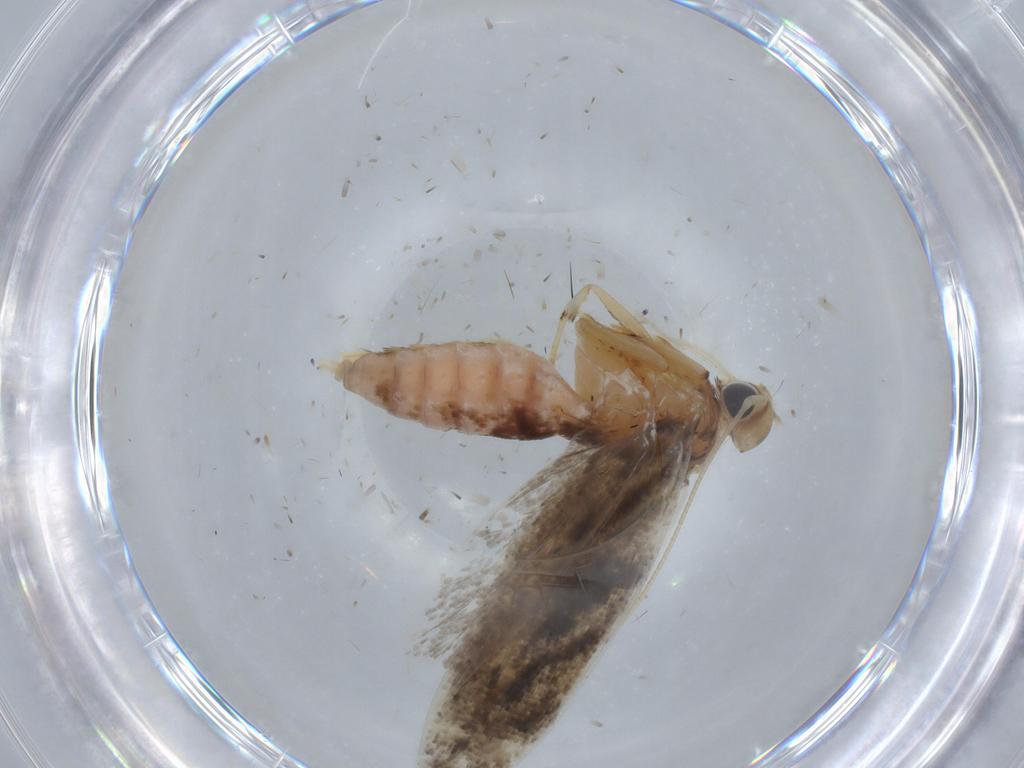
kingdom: Animalia
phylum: Arthropoda
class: Insecta
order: Lepidoptera
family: Gelechiidae
